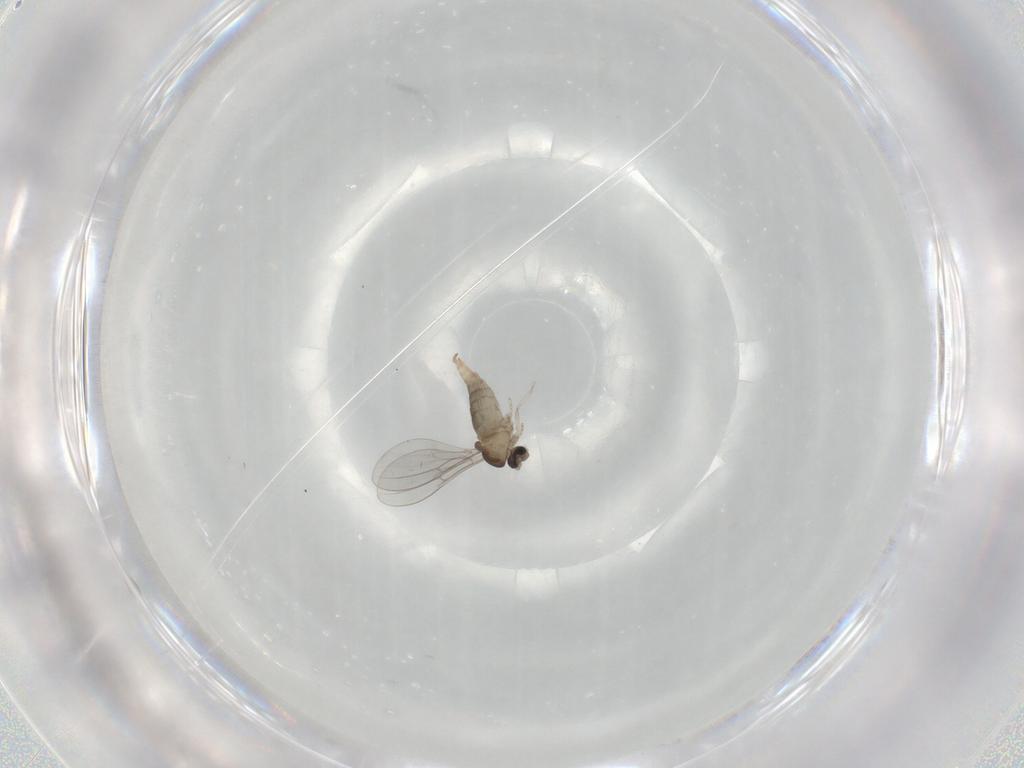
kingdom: Animalia
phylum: Arthropoda
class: Insecta
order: Diptera
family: Cecidomyiidae
